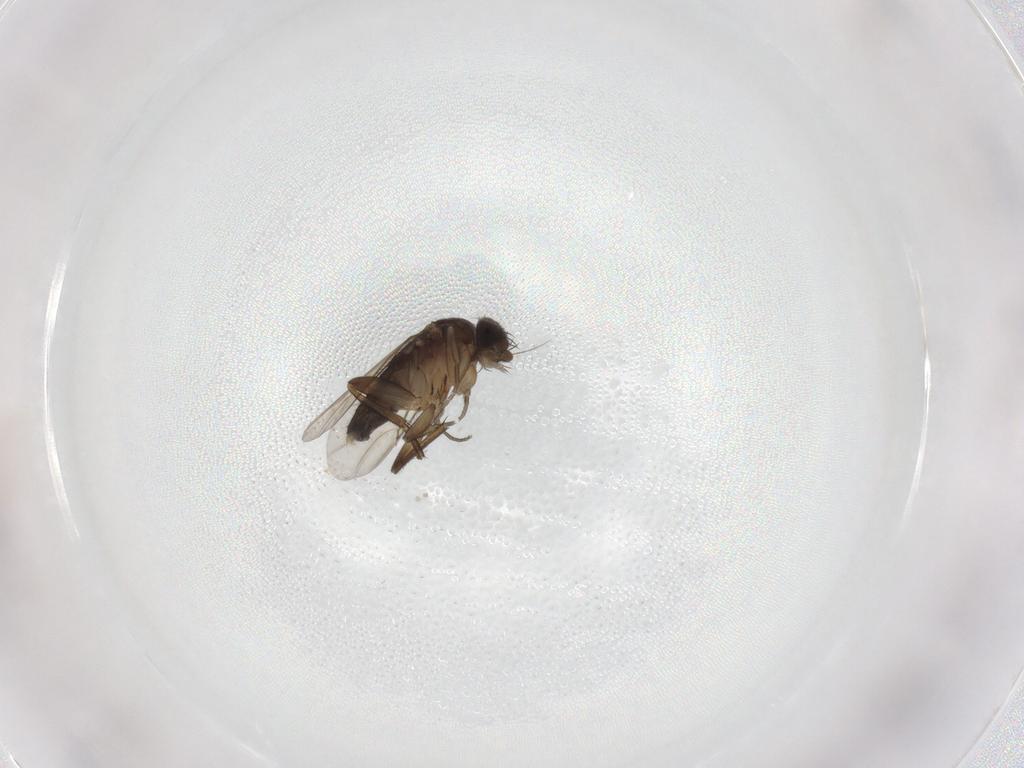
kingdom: Animalia
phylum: Arthropoda
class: Insecta
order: Diptera
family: Phoridae
